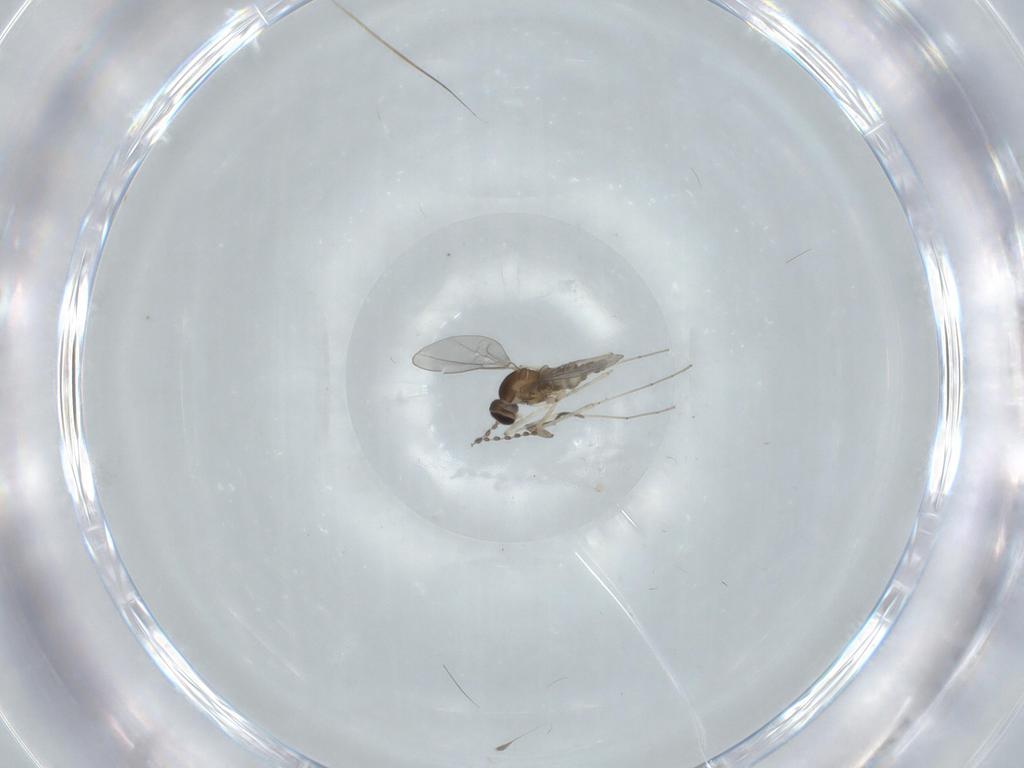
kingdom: Animalia
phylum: Arthropoda
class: Insecta
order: Diptera
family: Cecidomyiidae
